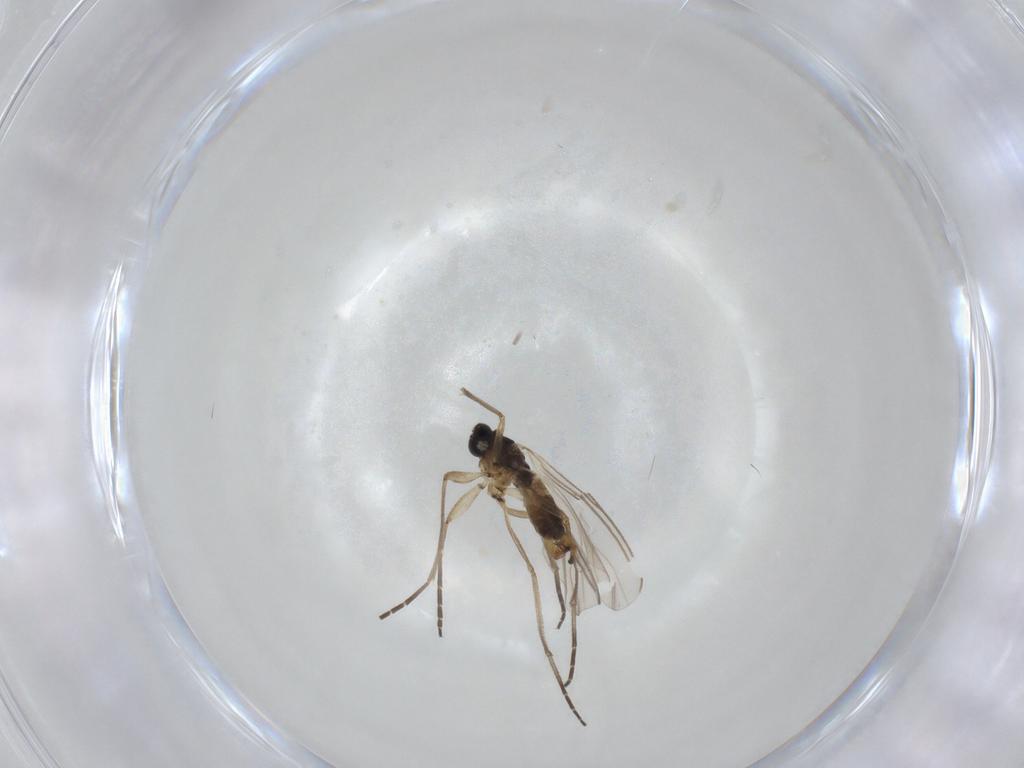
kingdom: Animalia
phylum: Arthropoda
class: Insecta
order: Diptera
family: Chironomidae
